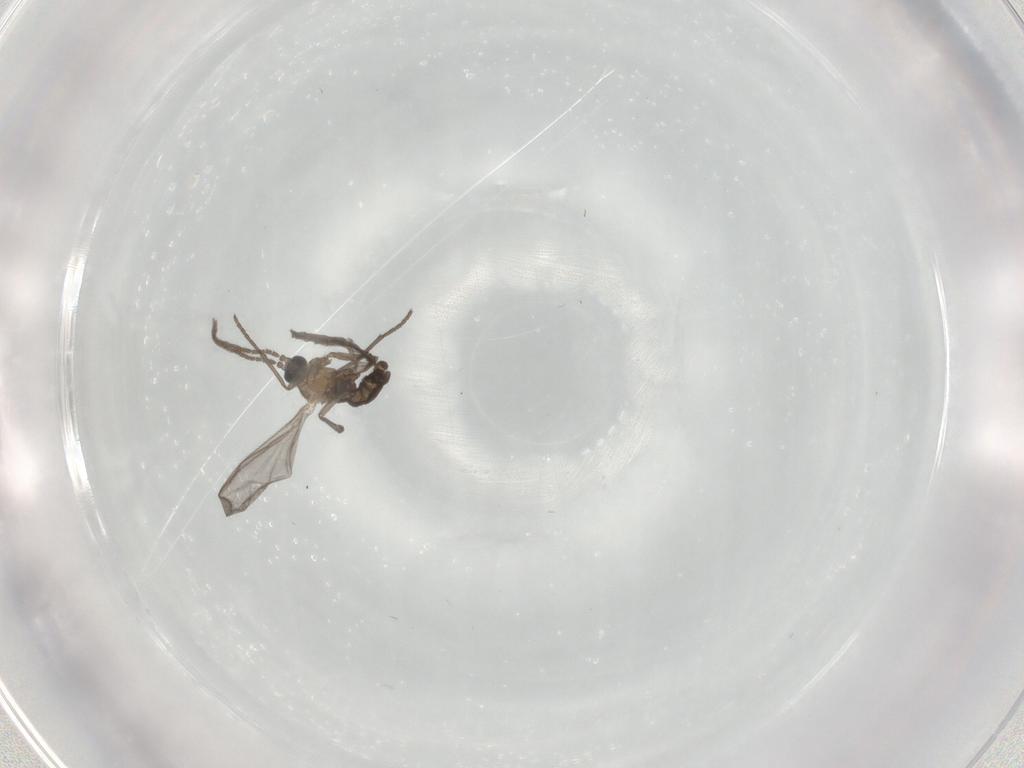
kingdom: Animalia
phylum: Arthropoda
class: Insecta
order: Diptera
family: Sciaridae
